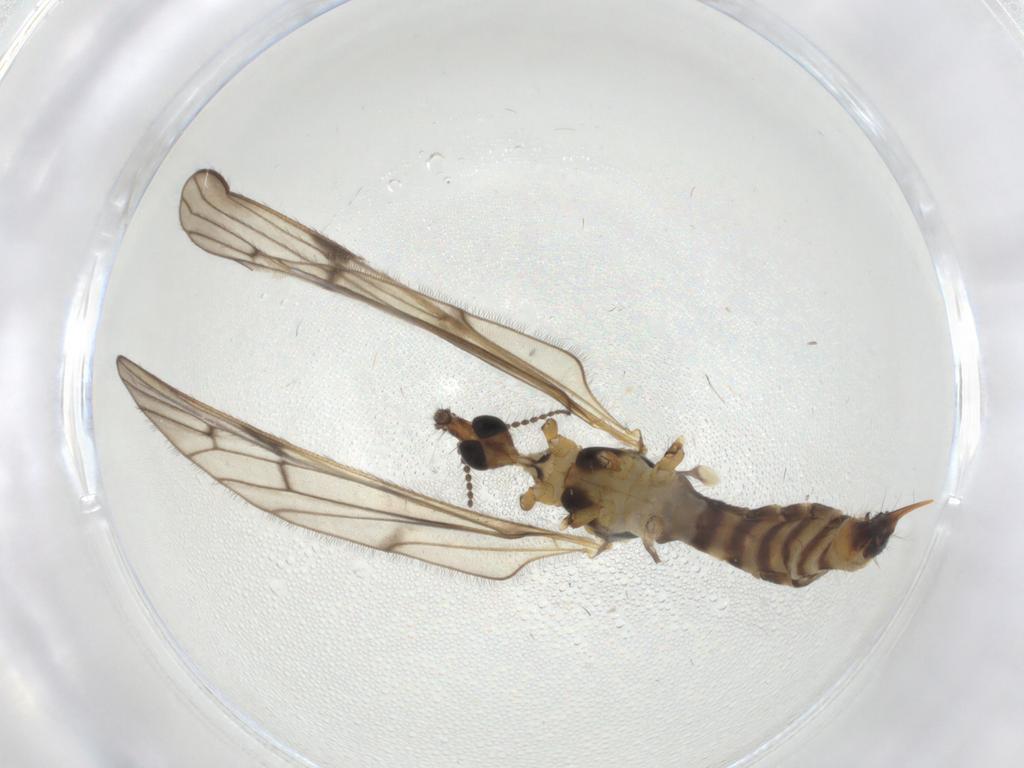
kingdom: Animalia
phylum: Arthropoda
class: Insecta
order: Diptera
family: Limoniidae
